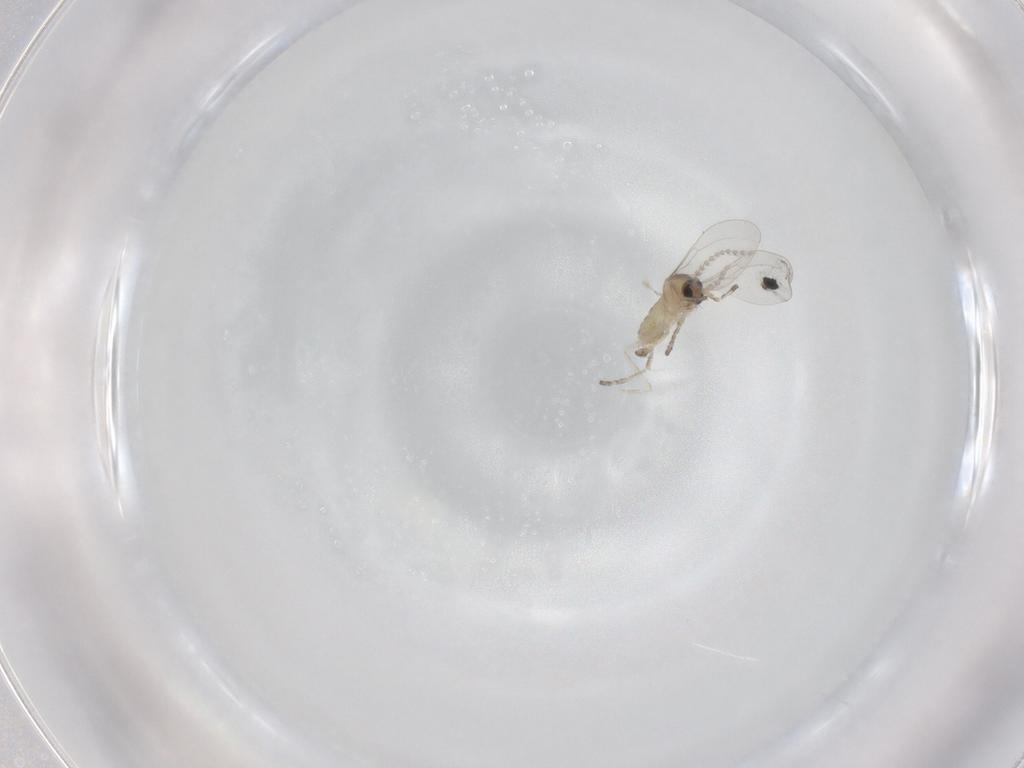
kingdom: Animalia
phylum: Arthropoda
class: Insecta
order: Diptera
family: Cecidomyiidae
